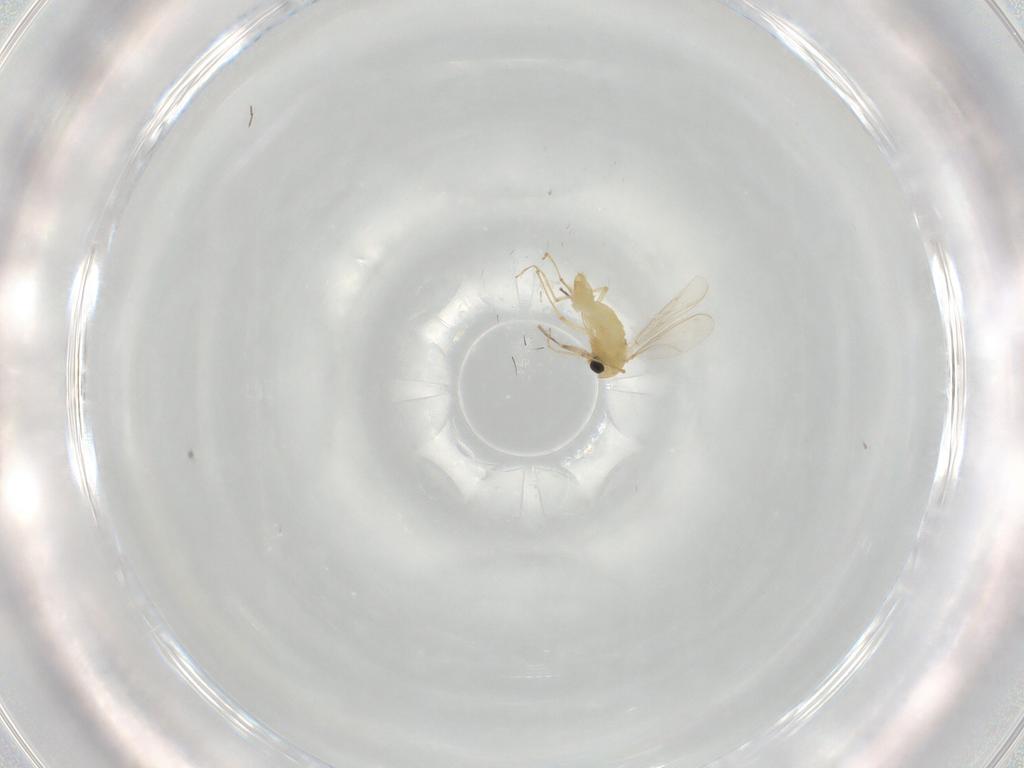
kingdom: Animalia
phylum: Arthropoda
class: Insecta
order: Diptera
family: Chironomidae
